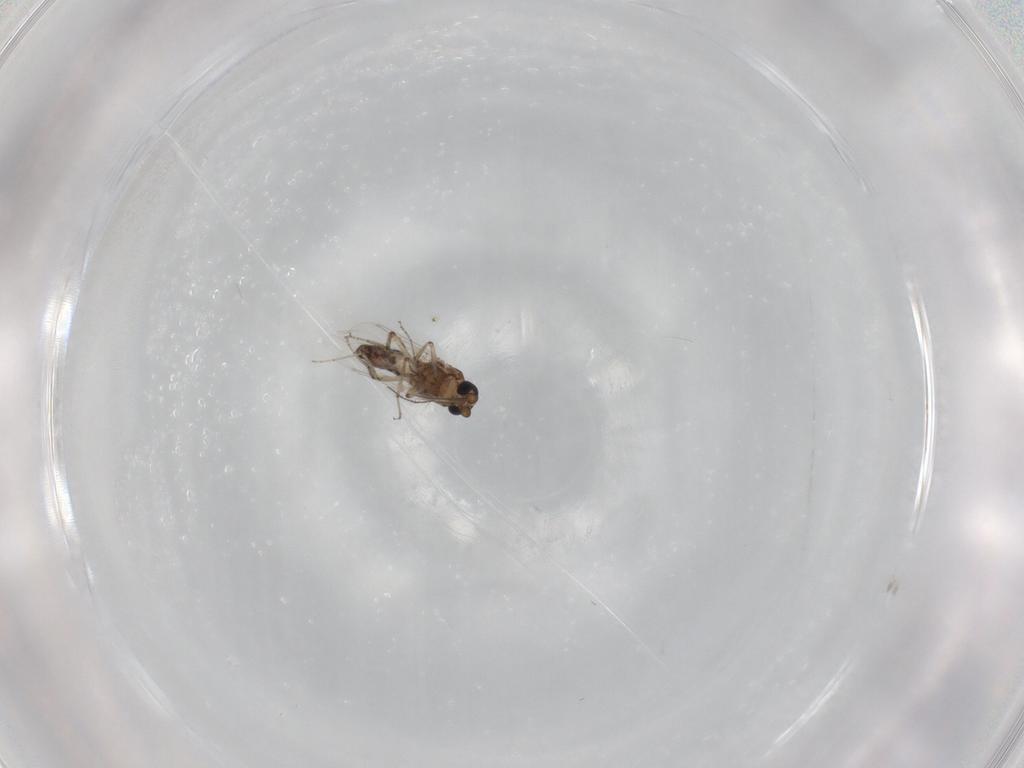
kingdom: Animalia
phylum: Arthropoda
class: Insecta
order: Diptera
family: Ceratopogonidae
